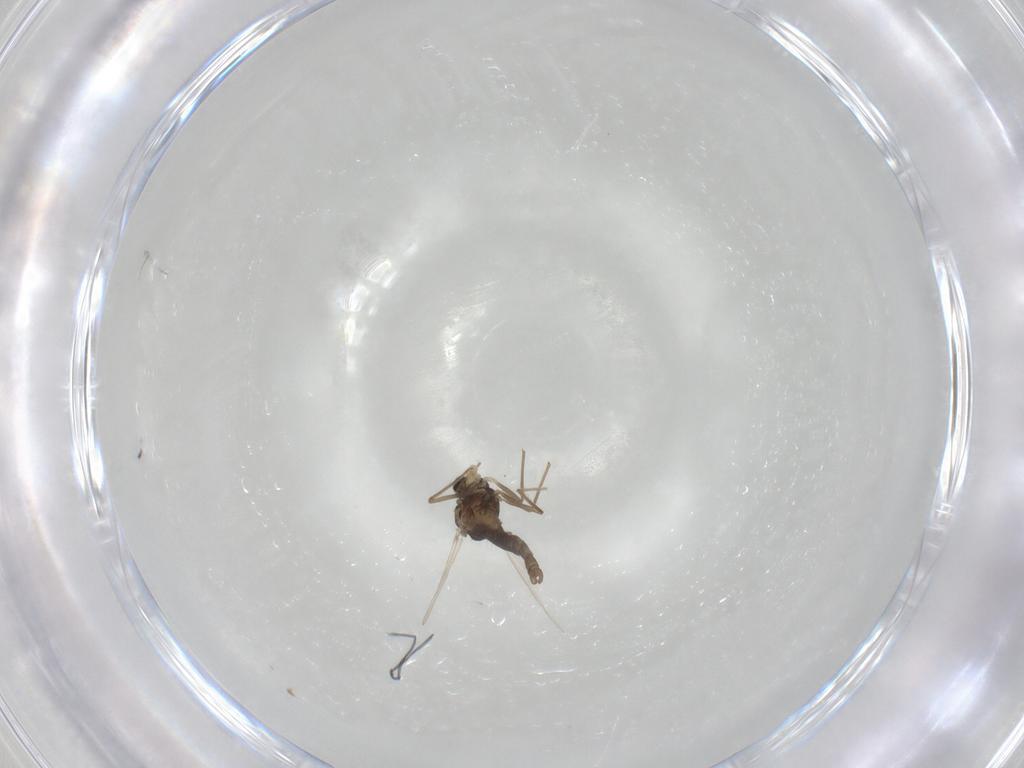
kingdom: Animalia
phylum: Arthropoda
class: Insecta
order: Diptera
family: Chironomidae
